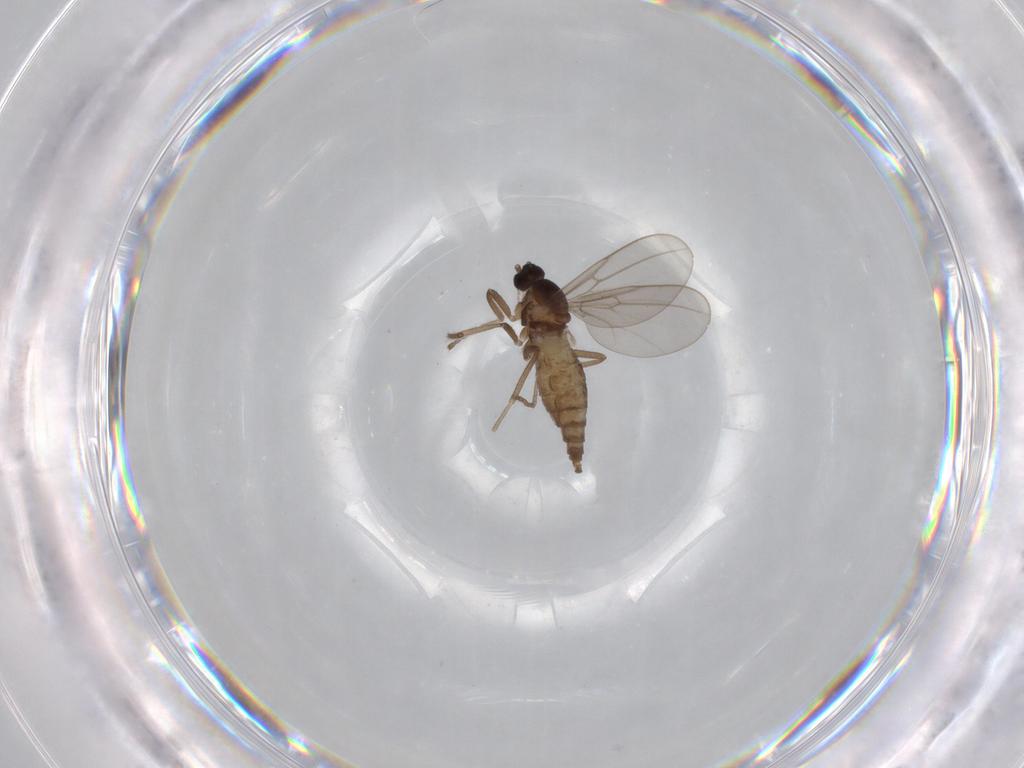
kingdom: Animalia
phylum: Arthropoda
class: Insecta
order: Diptera
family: Cecidomyiidae
